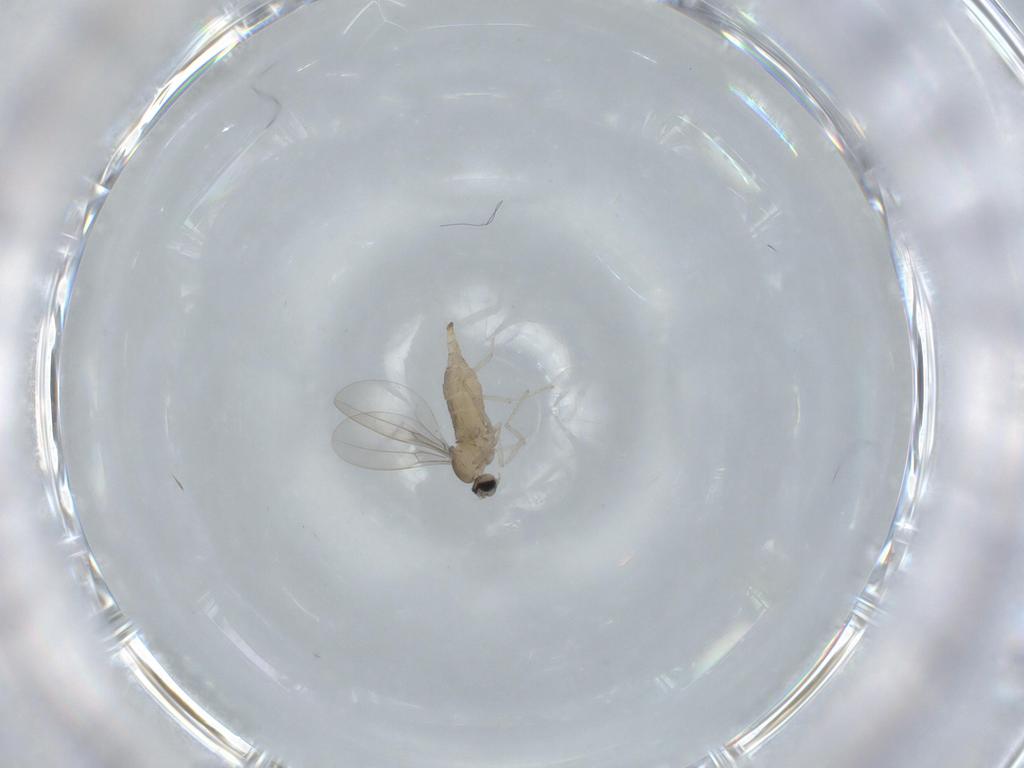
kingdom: Animalia
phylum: Arthropoda
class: Insecta
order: Diptera
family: Cecidomyiidae
